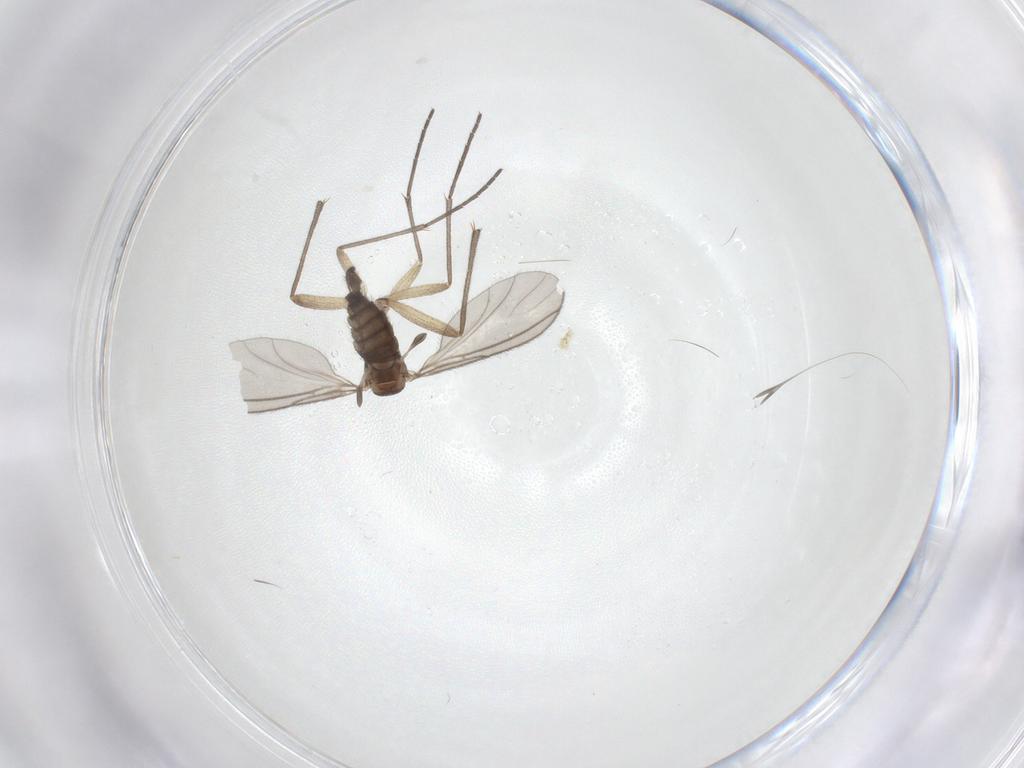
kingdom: Animalia
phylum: Arthropoda
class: Insecta
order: Diptera
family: Sciaridae
